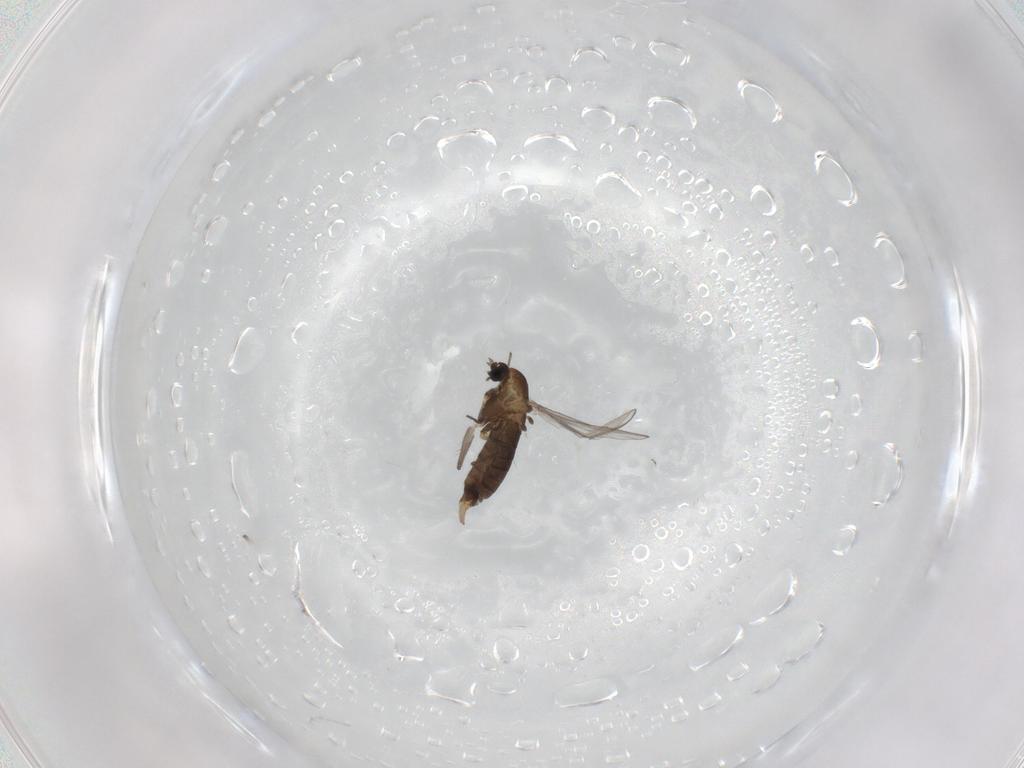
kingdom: Animalia
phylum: Arthropoda
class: Insecta
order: Diptera
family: Chironomidae
